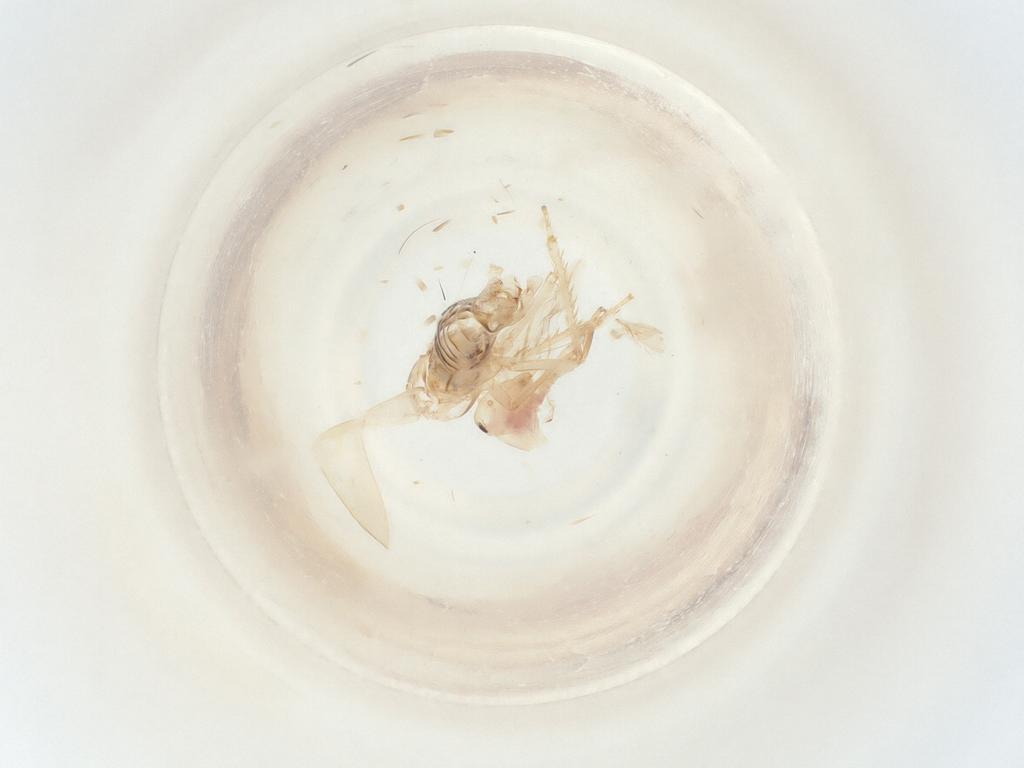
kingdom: Animalia
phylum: Arthropoda
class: Insecta
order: Hemiptera
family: Cicadellidae
